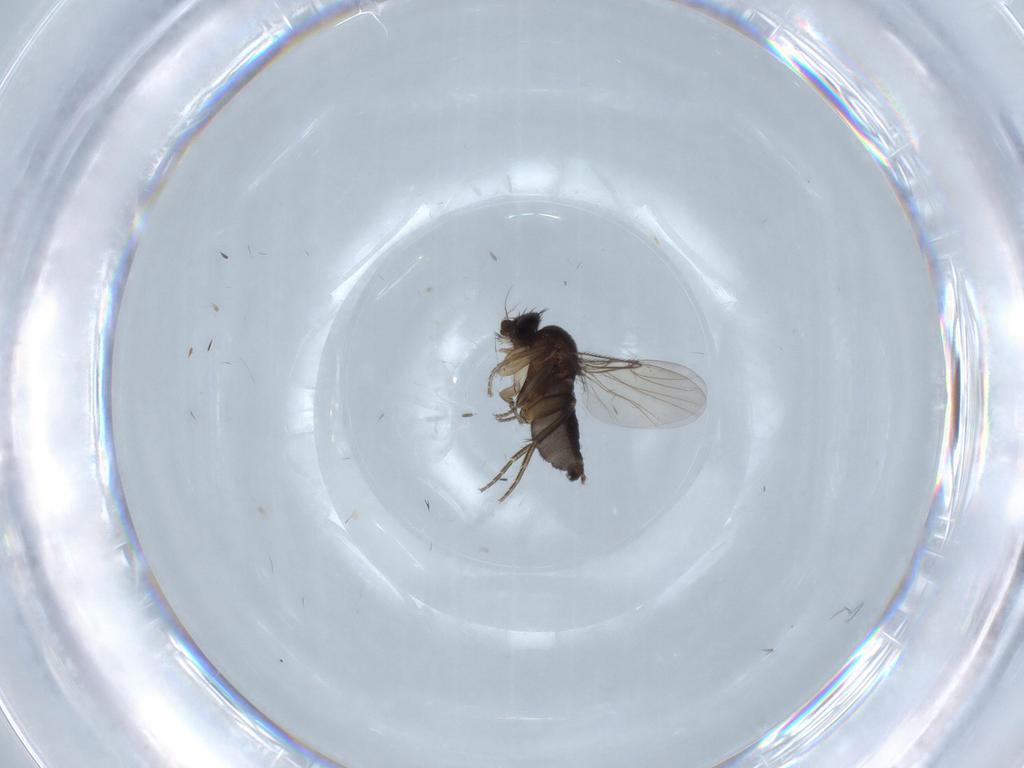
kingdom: Animalia
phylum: Arthropoda
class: Insecta
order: Diptera
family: Phoridae
